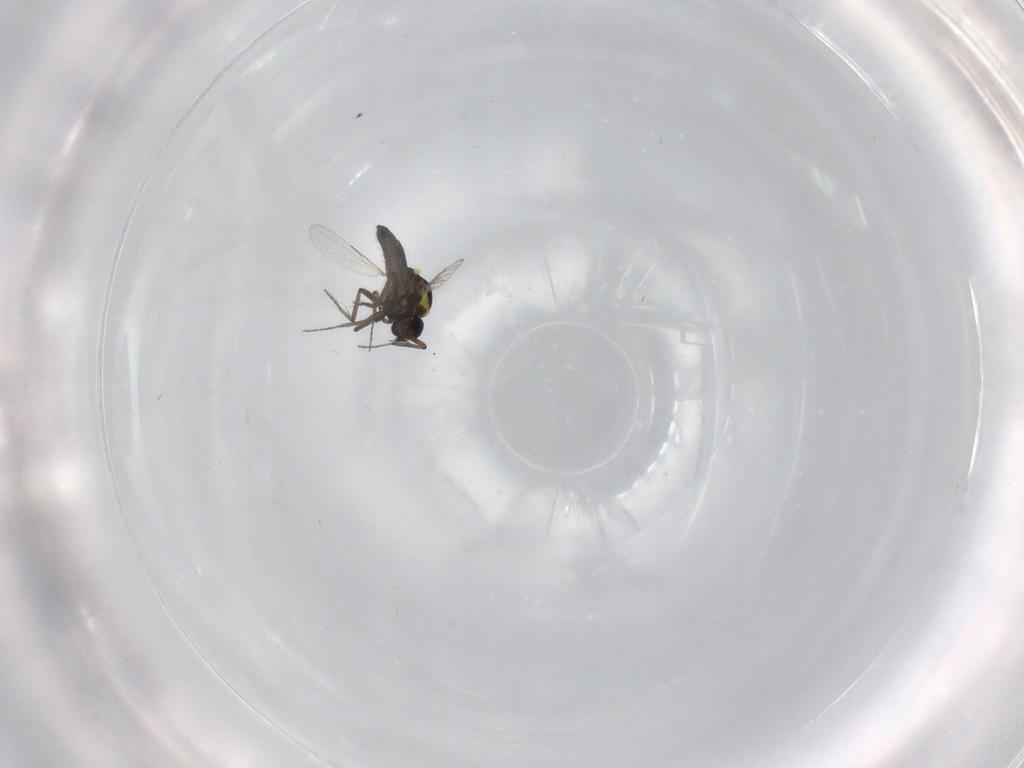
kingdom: Animalia
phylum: Arthropoda
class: Insecta
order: Diptera
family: Ceratopogonidae
